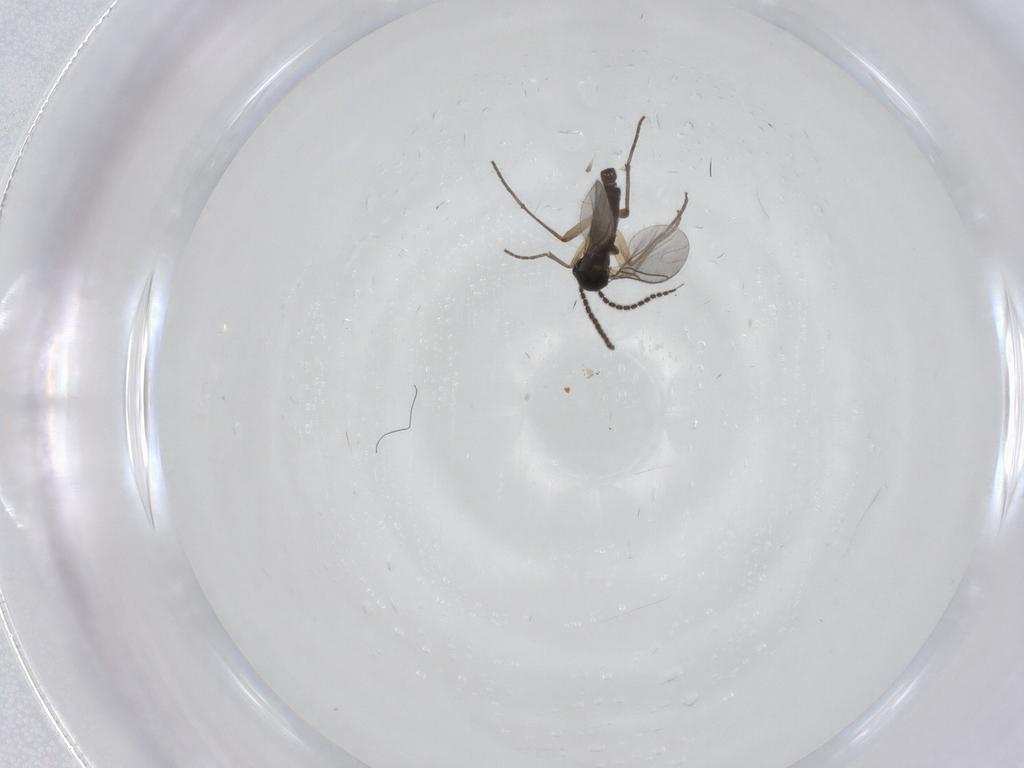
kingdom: Animalia
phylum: Arthropoda
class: Insecta
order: Diptera
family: Sciaridae
